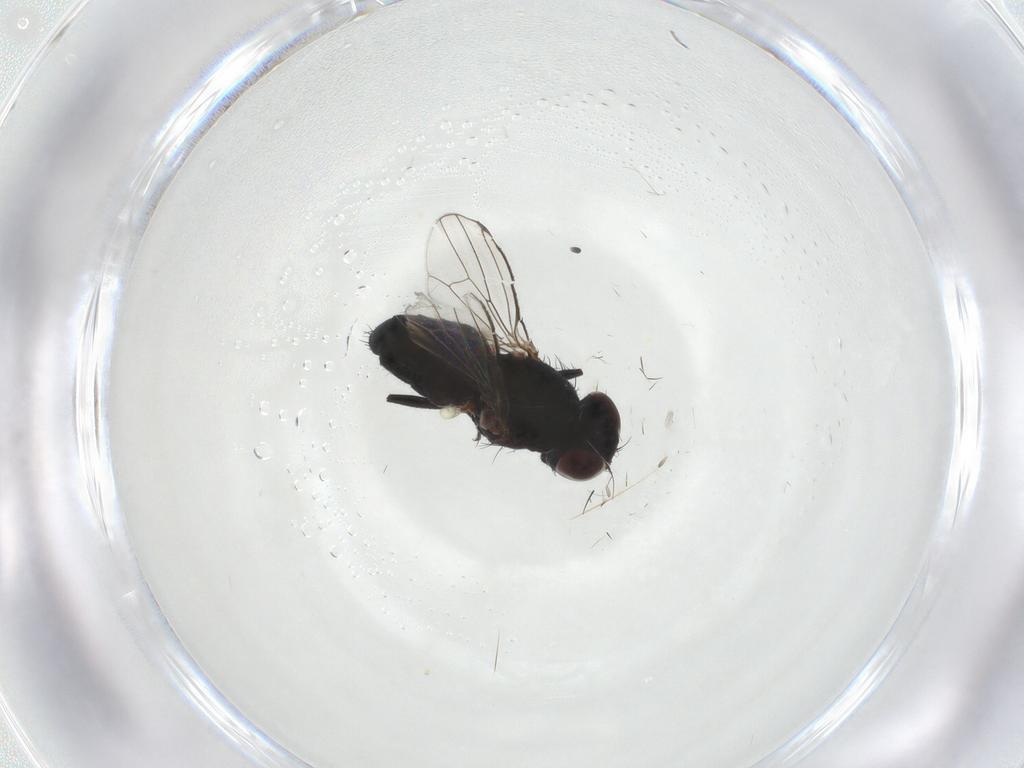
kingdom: Animalia
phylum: Arthropoda
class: Insecta
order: Diptera
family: Carnidae
